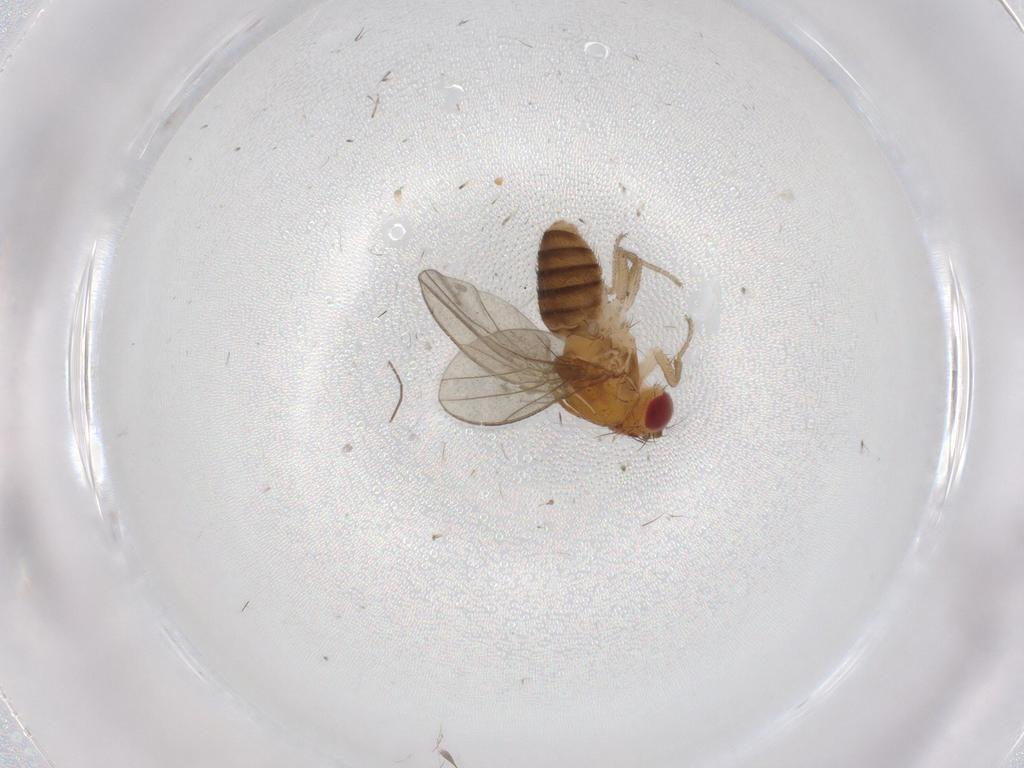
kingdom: Animalia
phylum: Arthropoda
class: Insecta
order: Diptera
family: Drosophilidae
